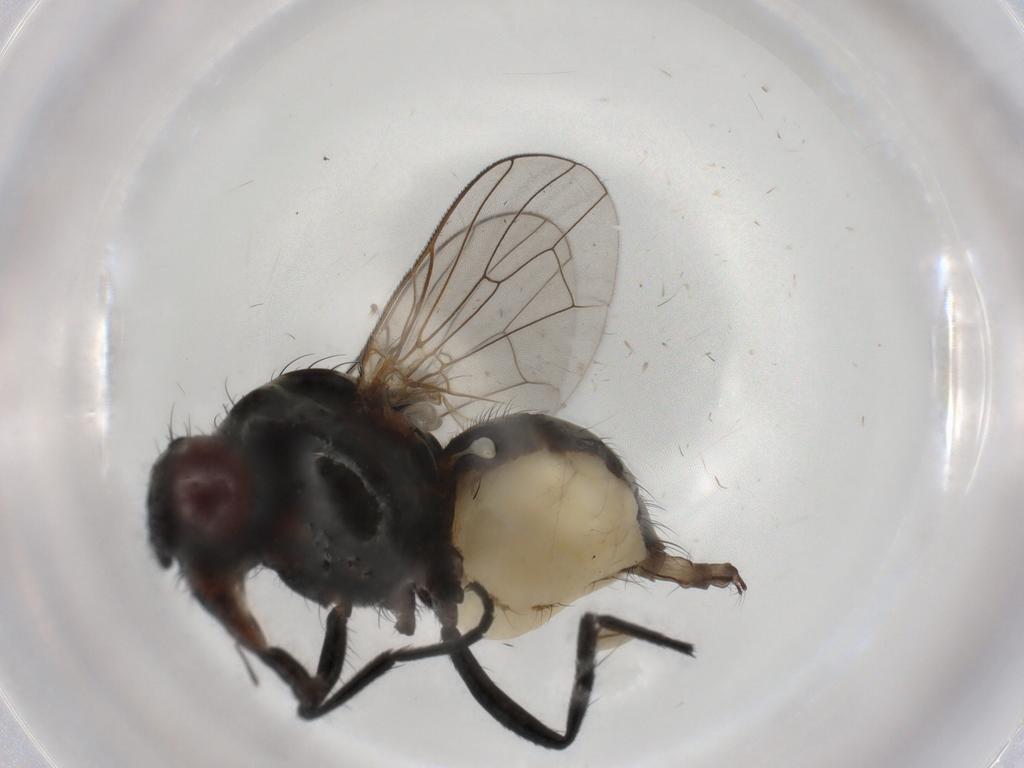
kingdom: Animalia
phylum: Arthropoda
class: Insecta
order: Diptera
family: Anthomyiidae
